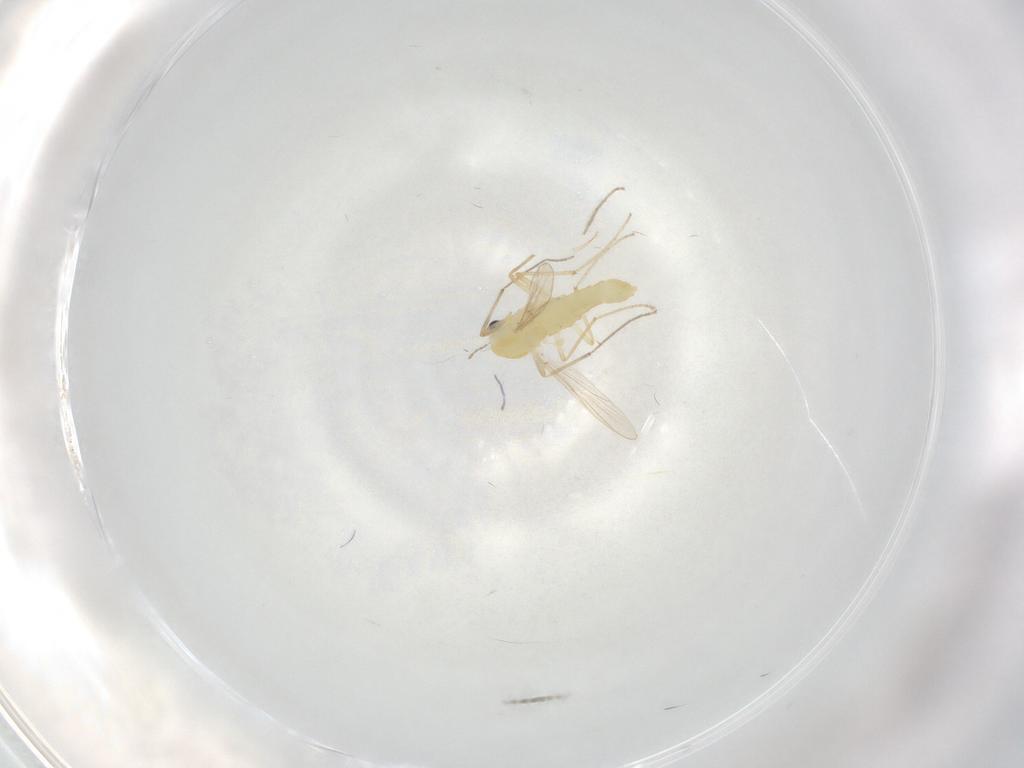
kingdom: Animalia
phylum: Arthropoda
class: Insecta
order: Diptera
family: Chironomidae
